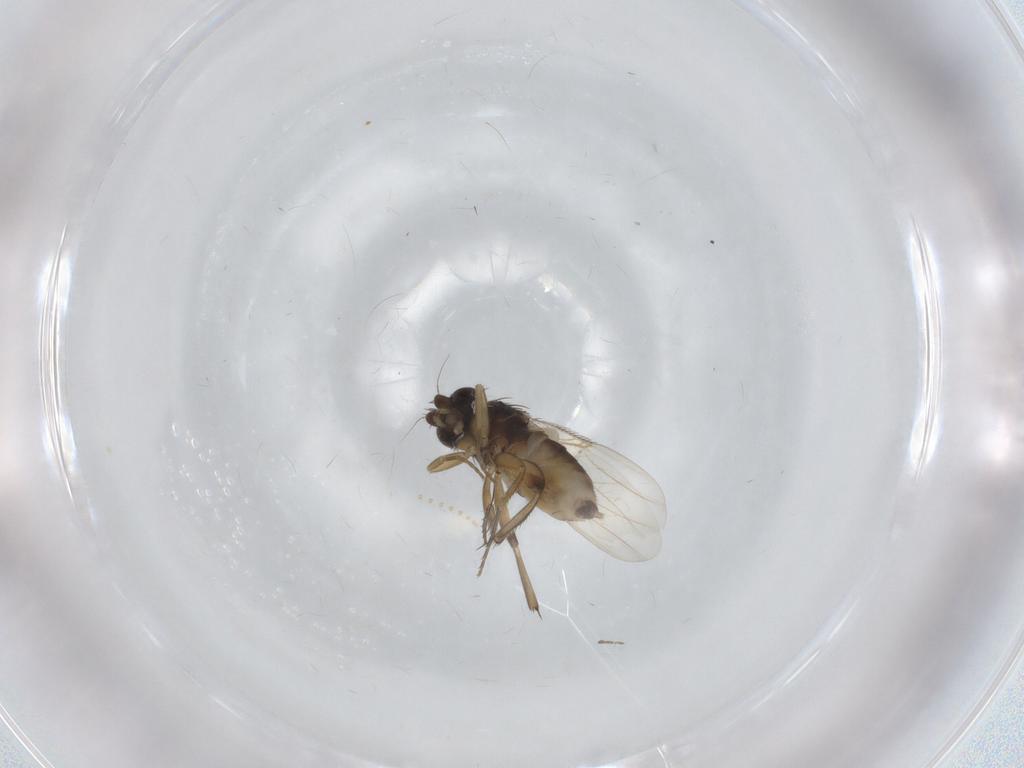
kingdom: Animalia
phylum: Arthropoda
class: Insecta
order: Diptera
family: Phoridae
